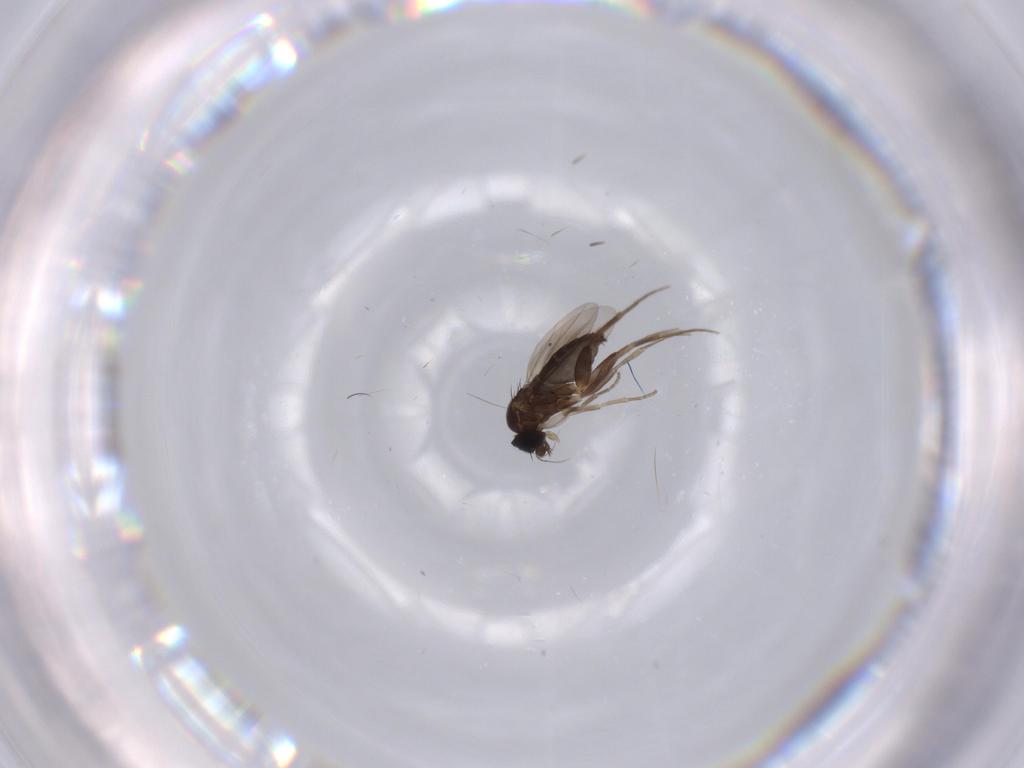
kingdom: Animalia
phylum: Arthropoda
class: Insecta
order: Diptera
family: Phoridae
